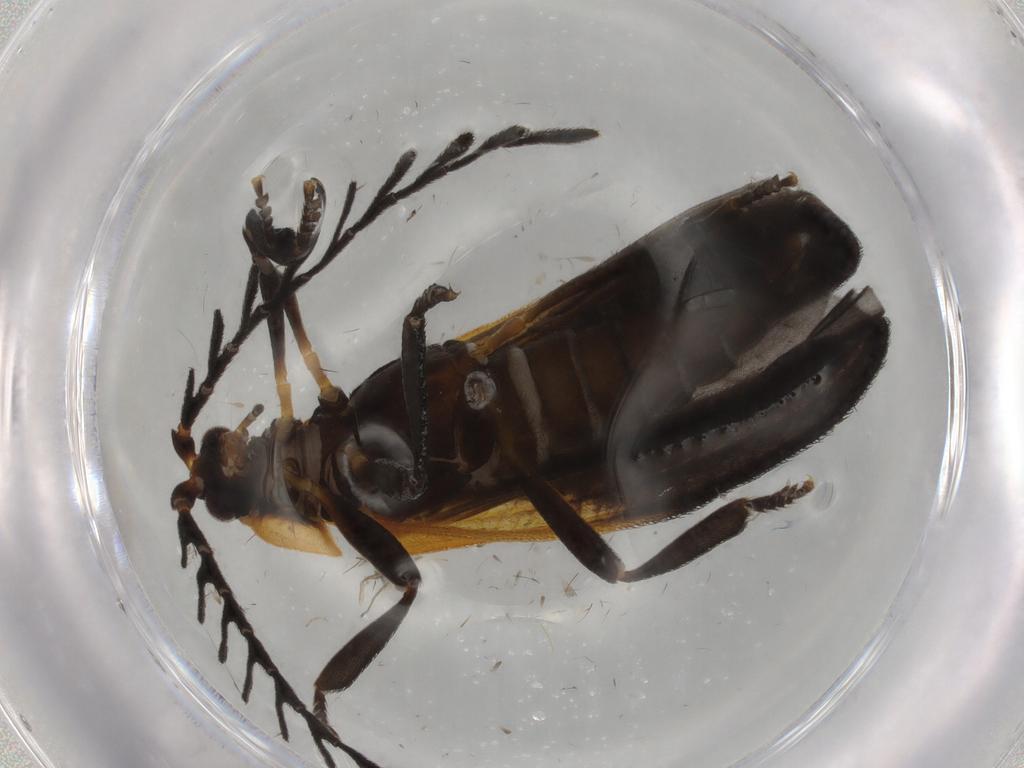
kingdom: Animalia
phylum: Arthropoda
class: Insecta
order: Coleoptera
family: Lycidae
